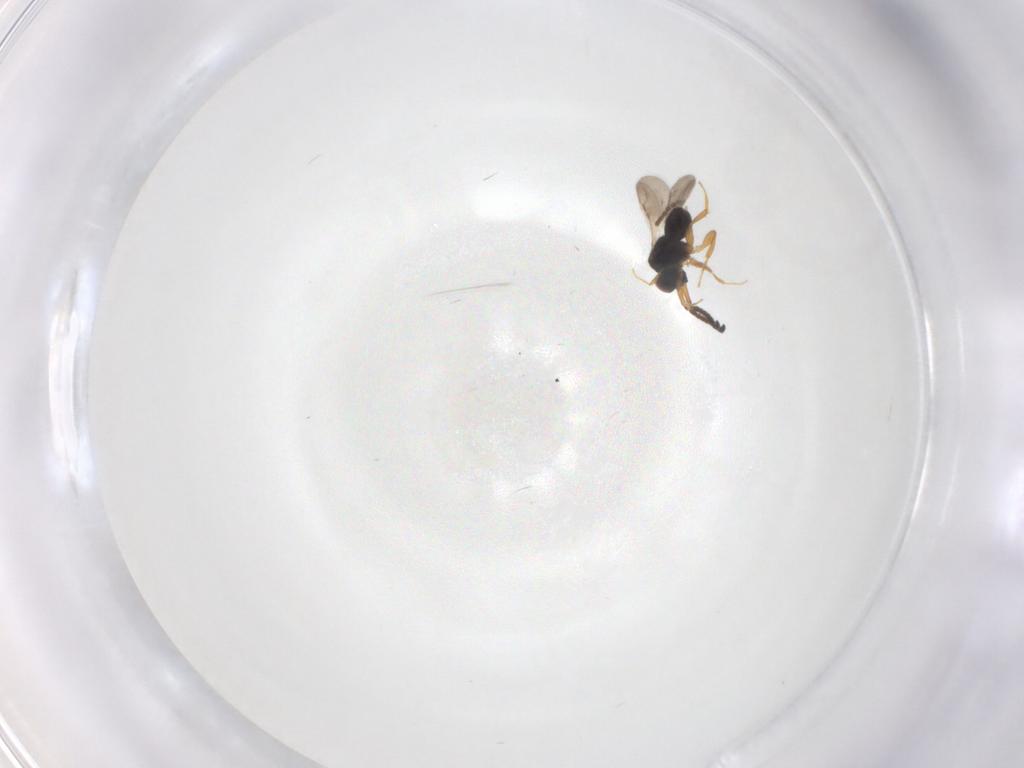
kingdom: Animalia
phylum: Arthropoda
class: Insecta
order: Hymenoptera
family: Ceraphronidae
